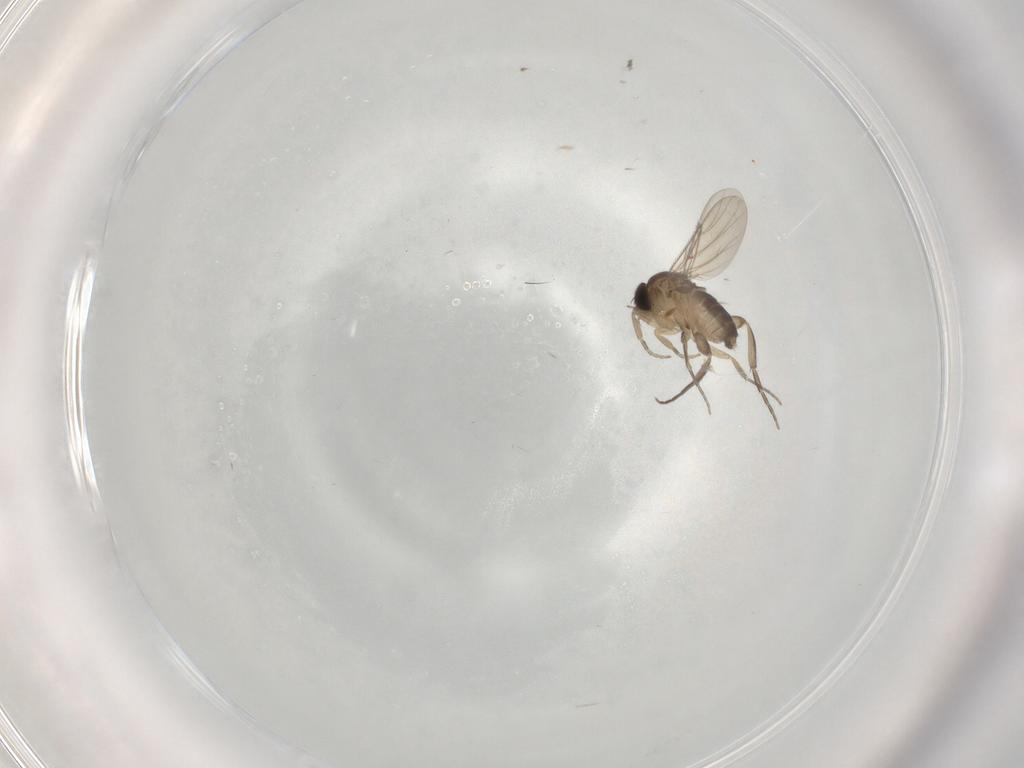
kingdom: Animalia
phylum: Arthropoda
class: Insecta
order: Diptera
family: Phoridae
